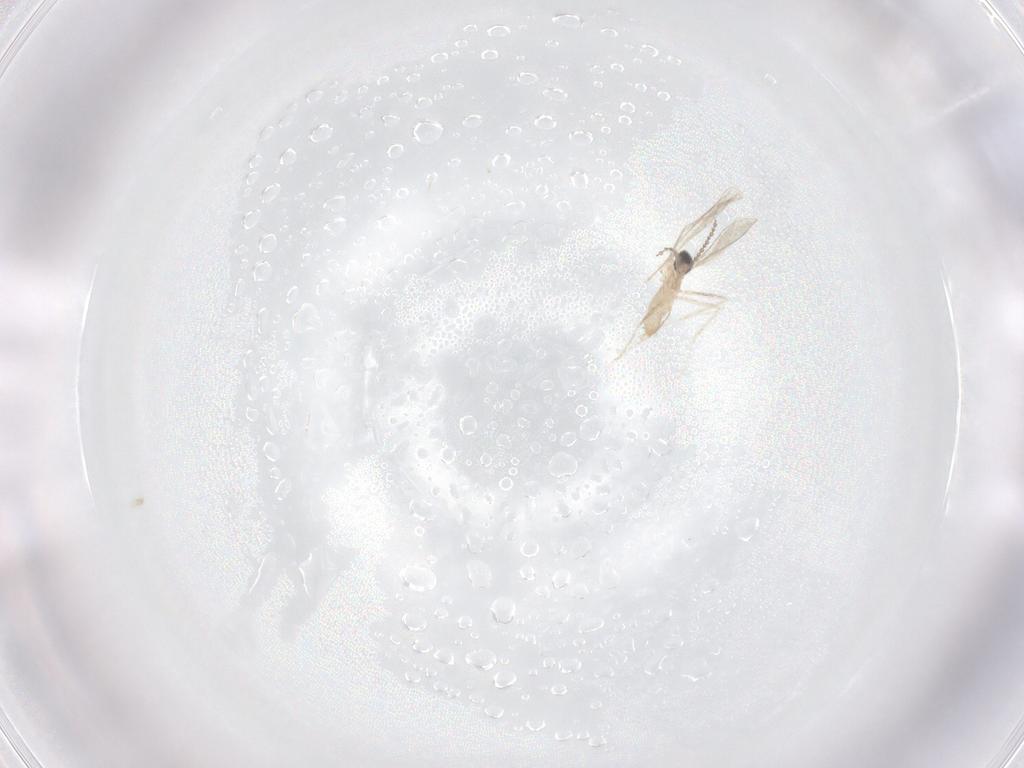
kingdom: Animalia
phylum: Arthropoda
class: Insecta
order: Diptera
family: Cecidomyiidae
